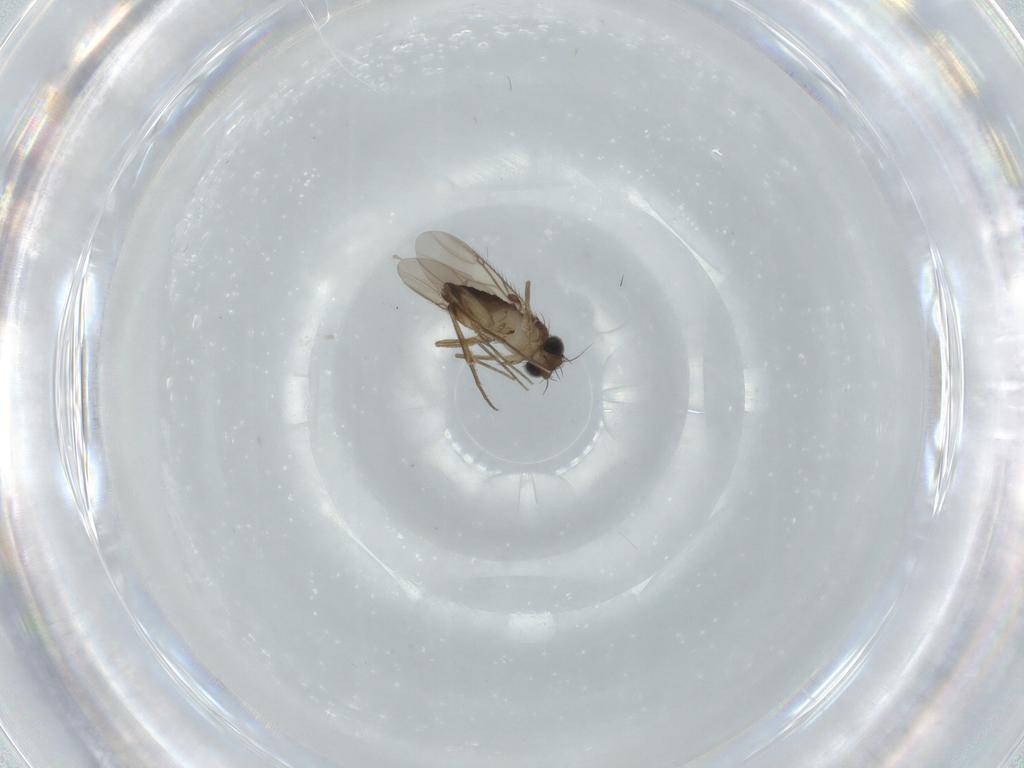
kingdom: Animalia
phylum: Arthropoda
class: Insecta
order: Diptera
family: Phoridae
